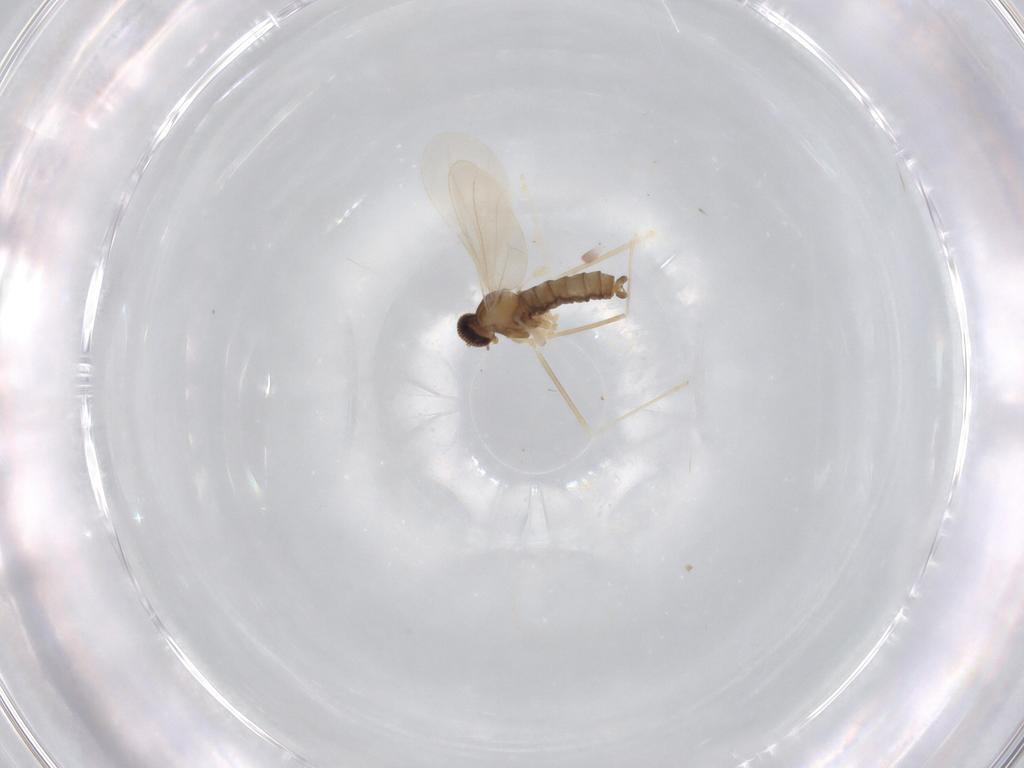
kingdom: Animalia
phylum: Arthropoda
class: Insecta
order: Diptera
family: Cecidomyiidae
